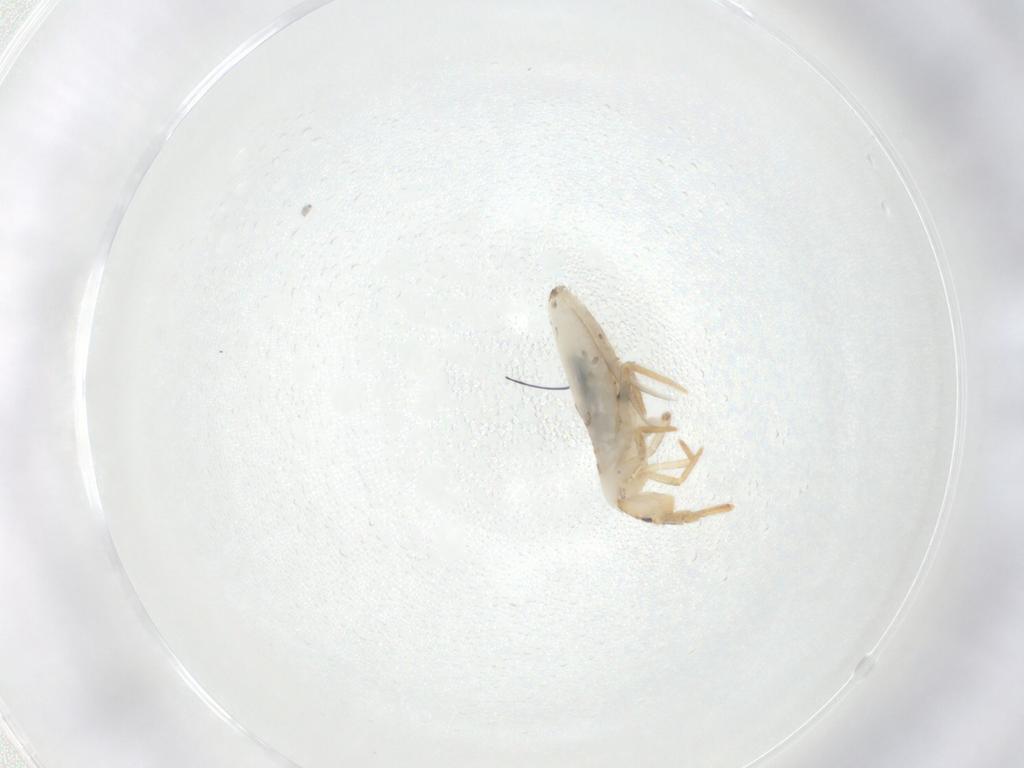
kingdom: Animalia
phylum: Arthropoda
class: Collembola
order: Entomobryomorpha
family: Entomobryidae
